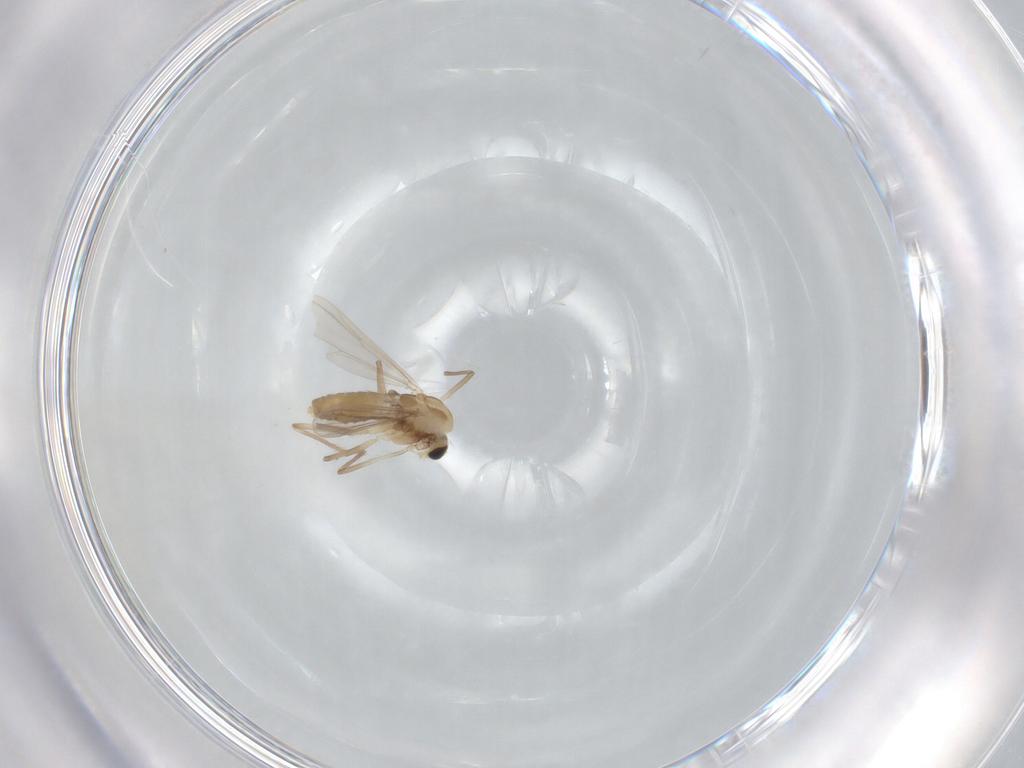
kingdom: Animalia
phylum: Arthropoda
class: Insecta
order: Diptera
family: Chironomidae
